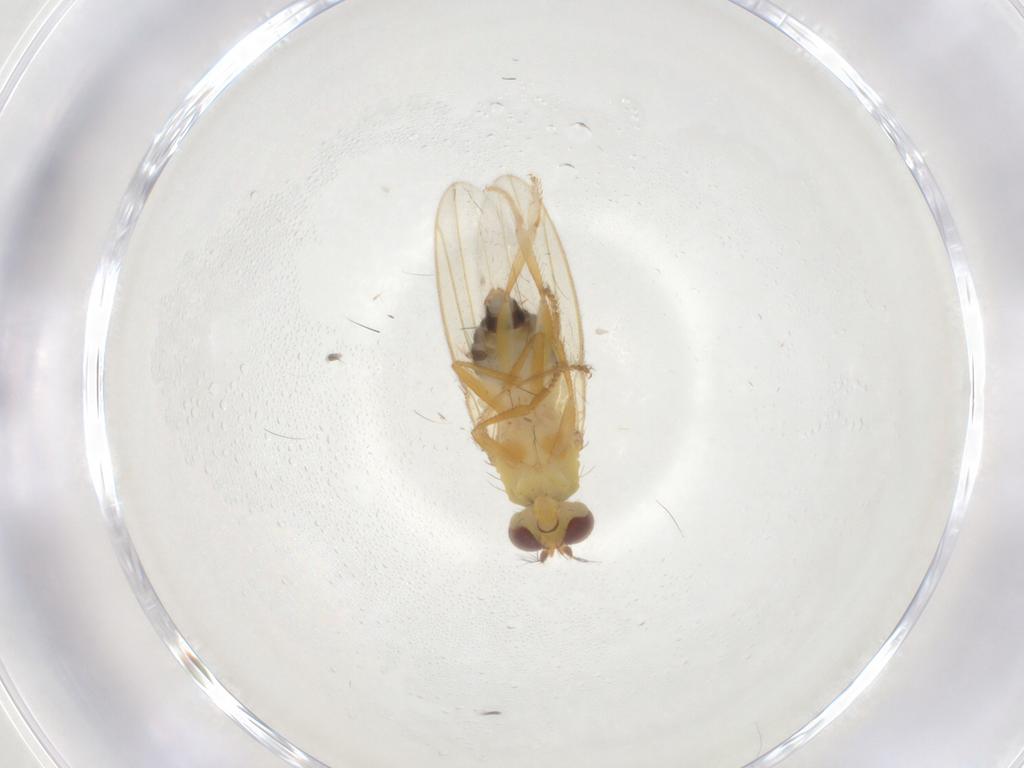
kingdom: Animalia
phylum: Arthropoda
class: Insecta
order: Diptera
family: Periscelididae
